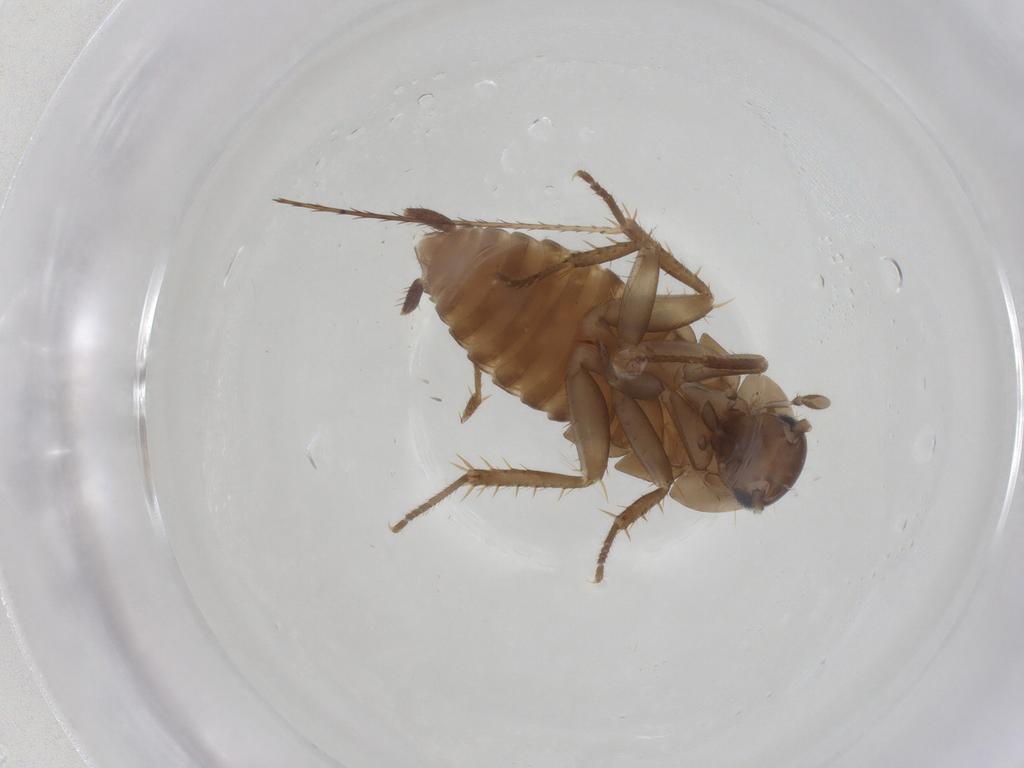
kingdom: Animalia
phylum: Arthropoda
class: Insecta
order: Blattodea
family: Ectobiidae
